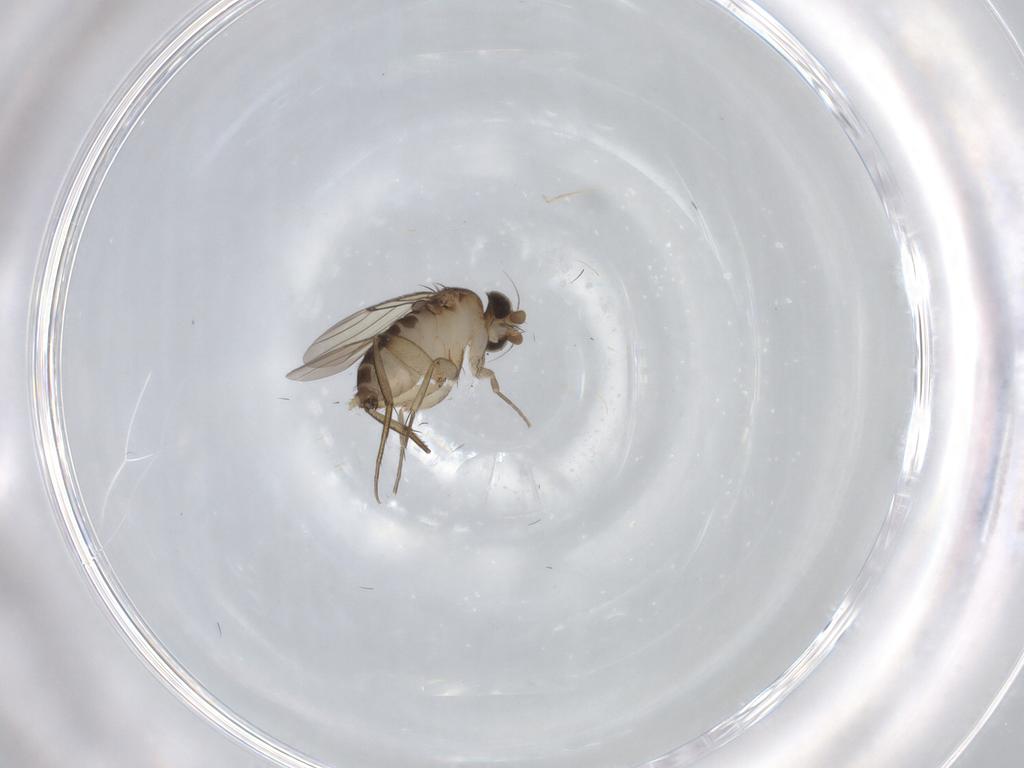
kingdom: Animalia
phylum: Arthropoda
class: Insecta
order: Diptera
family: Phoridae
